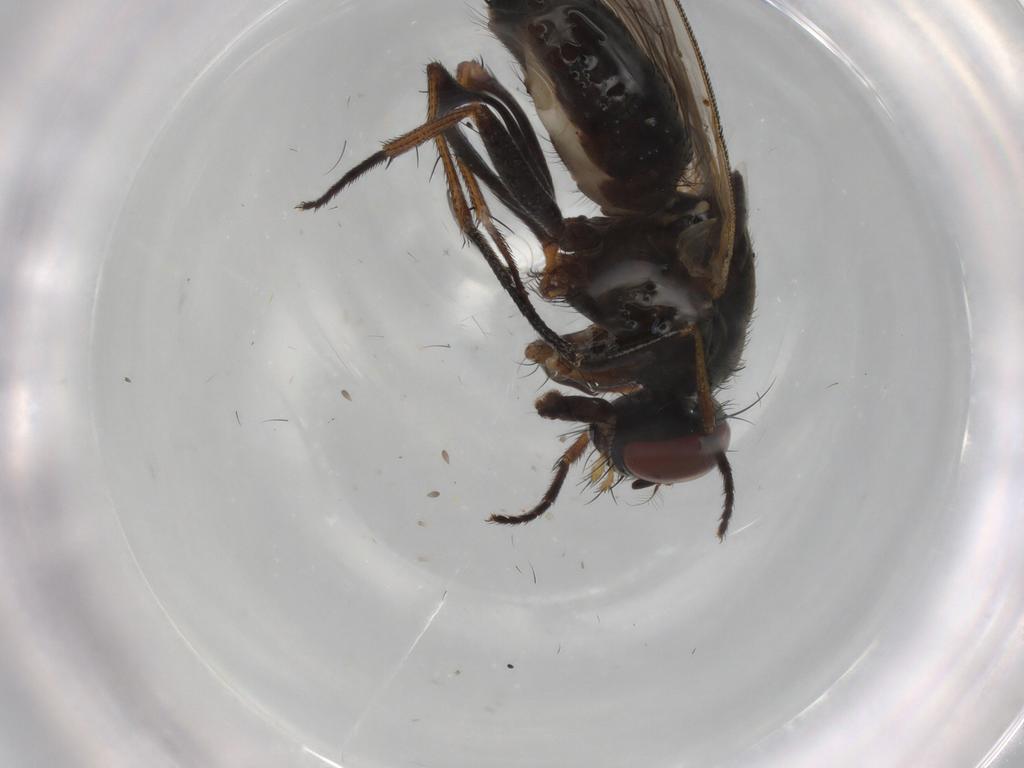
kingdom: Animalia
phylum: Arthropoda
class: Insecta
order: Diptera
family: Muscidae
